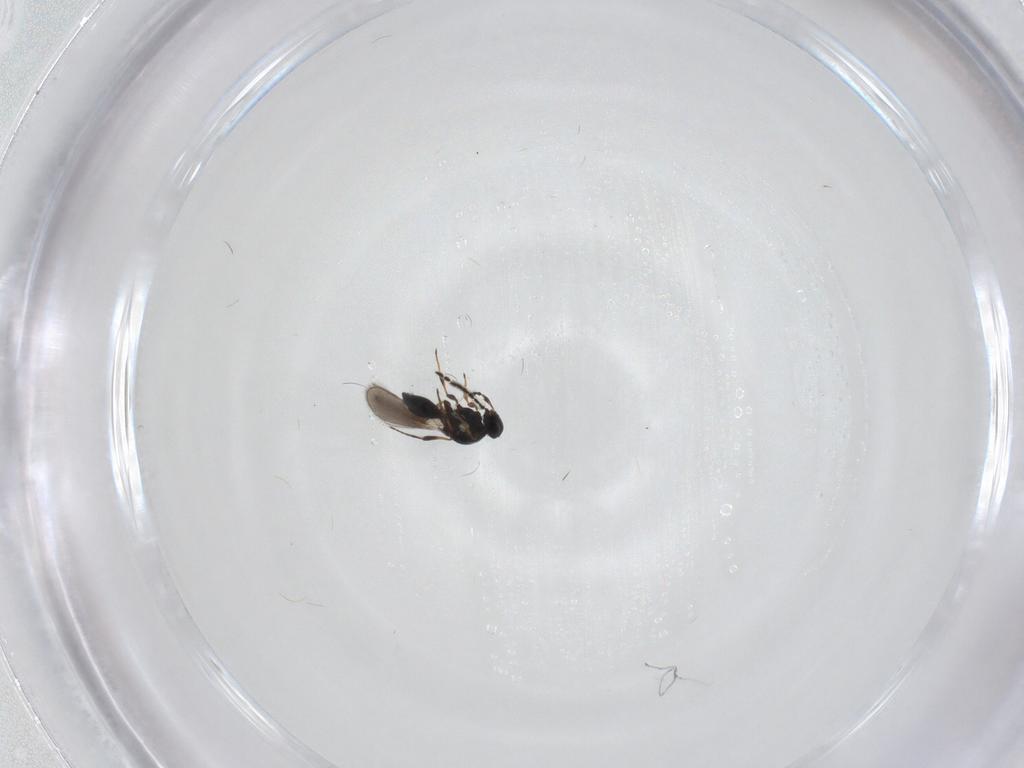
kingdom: Animalia
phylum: Arthropoda
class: Insecta
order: Hymenoptera
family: Platygastridae
